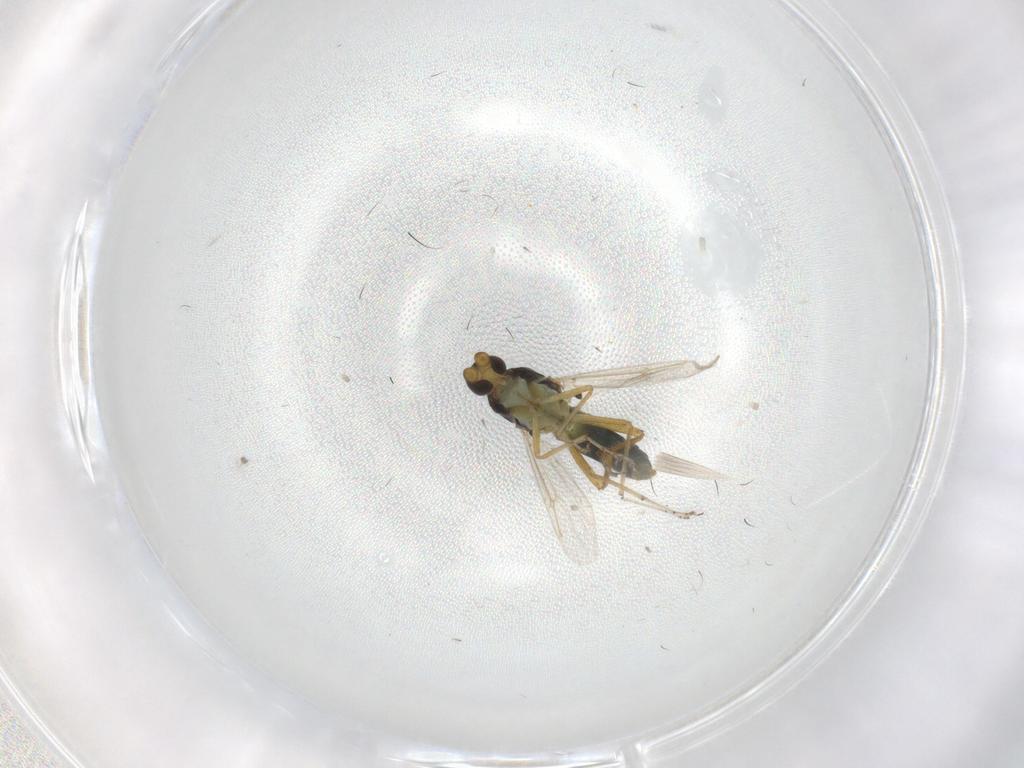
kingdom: Animalia
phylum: Arthropoda
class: Insecta
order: Diptera
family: Ceratopogonidae
